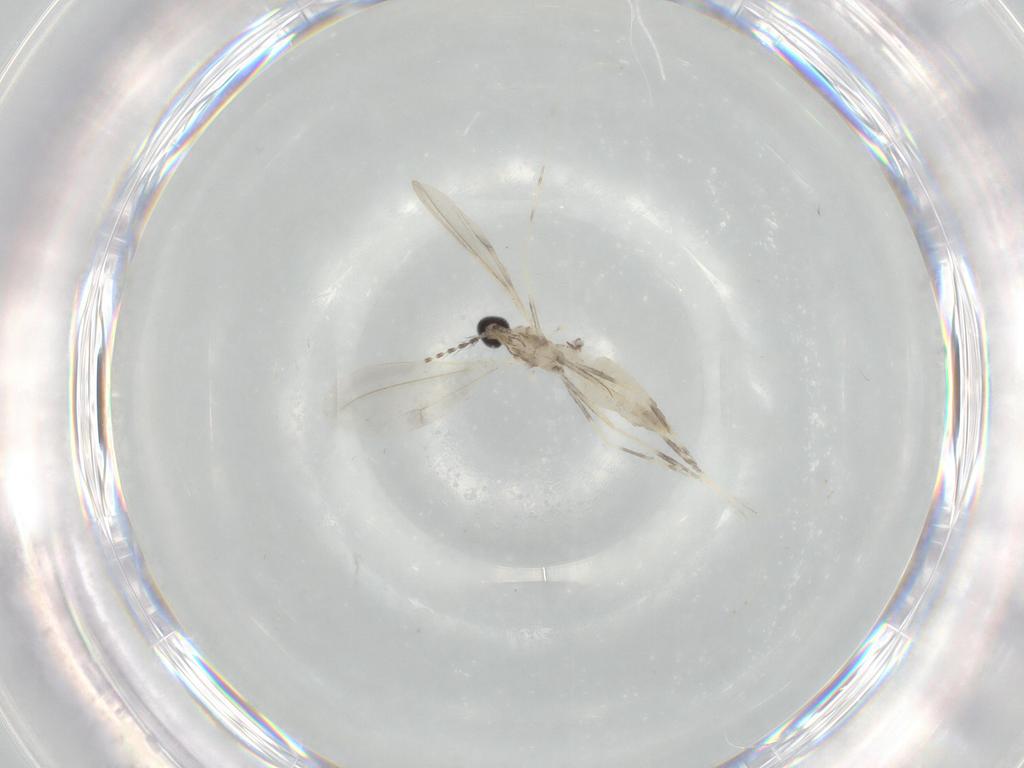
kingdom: Animalia
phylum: Arthropoda
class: Insecta
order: Diptera
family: Cecidomyiidae
